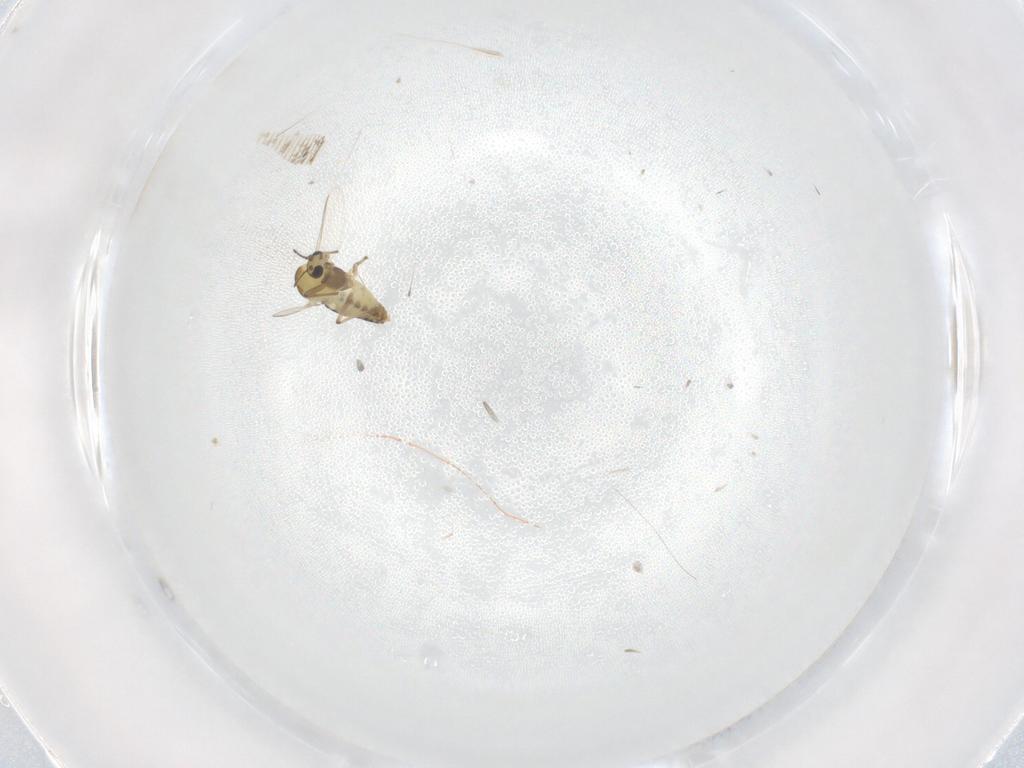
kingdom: Animalia
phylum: Arthropoda
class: Insecta
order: Diptera
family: Chironomidae
